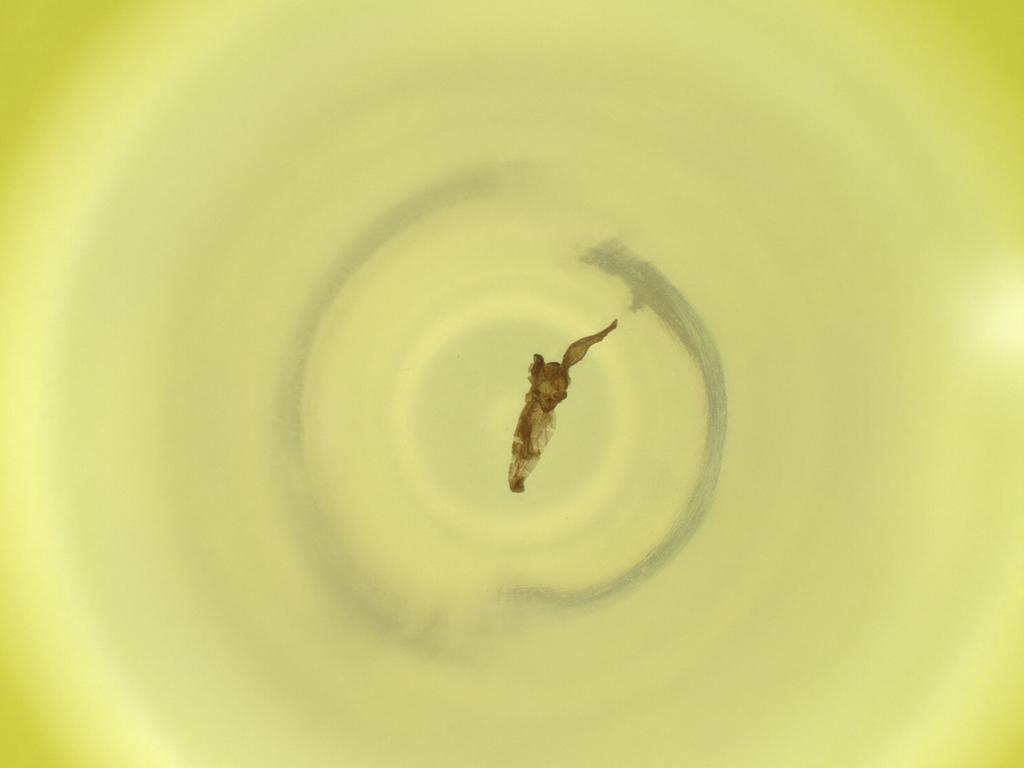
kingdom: Animalia
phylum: Arthropoda
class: Insecta
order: Diptera
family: Cecidomyiidae
